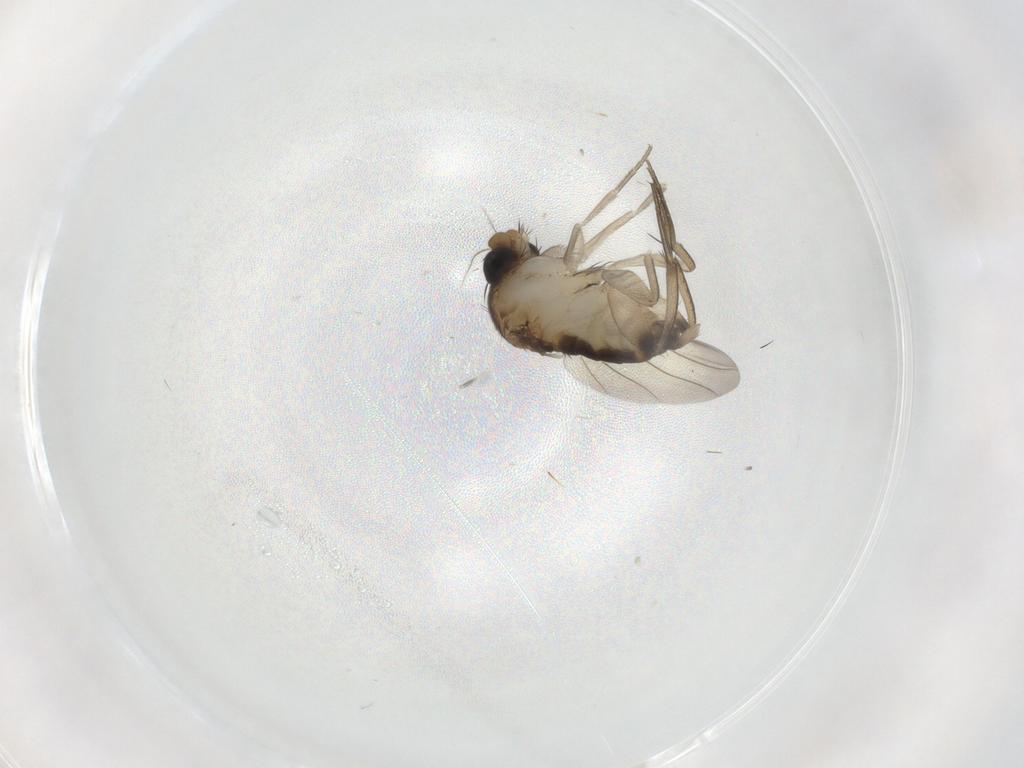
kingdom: Animalia
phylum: Arthropoda
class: Insecta
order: Diptera
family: Phoridae
